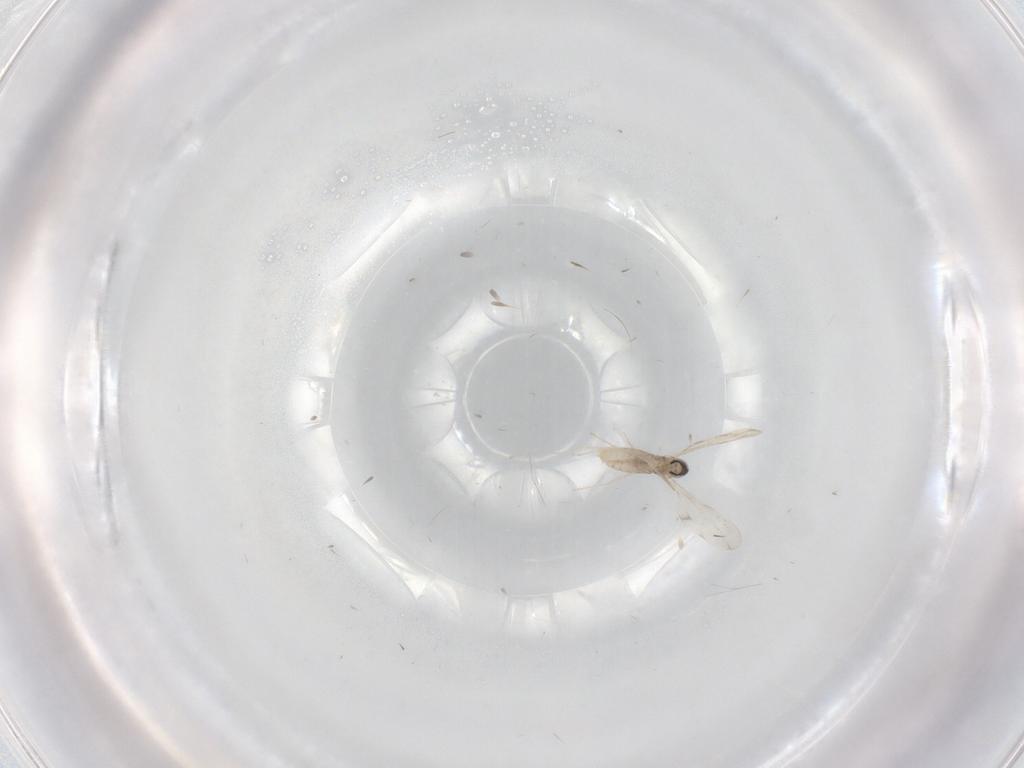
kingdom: Animalia
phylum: Arthropoda
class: Insecta
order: Diptera
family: Cecidomyiidae
